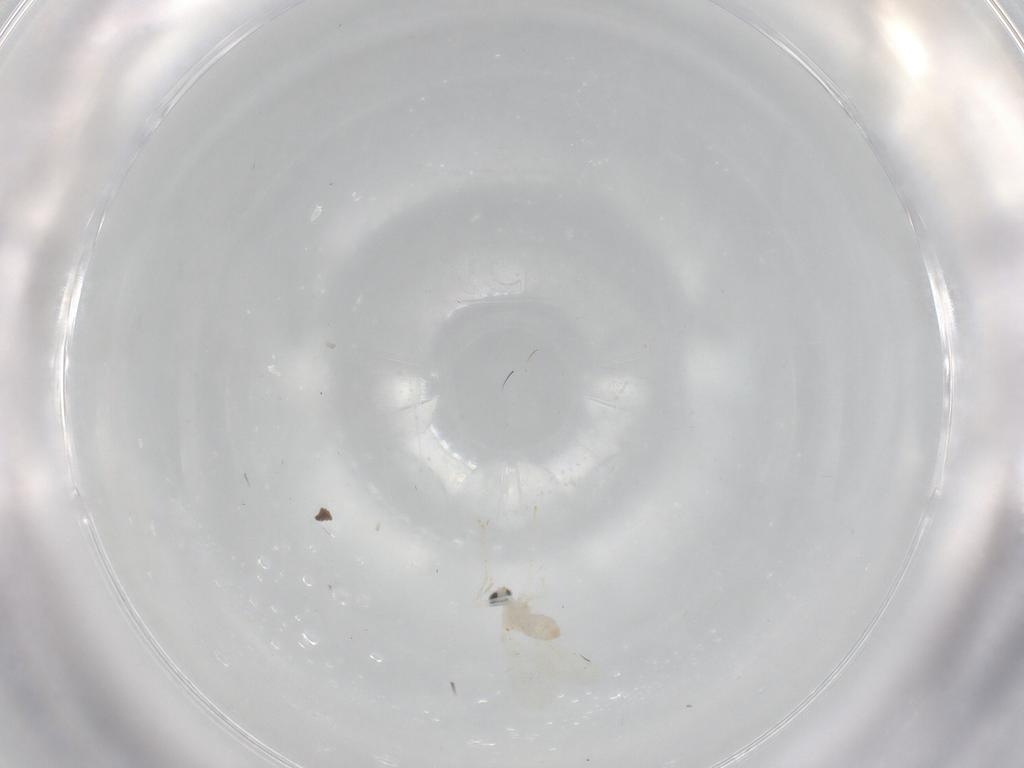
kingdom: Animalia
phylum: Arthropoda
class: Insecta
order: Diptera
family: Cecidomyiidae
